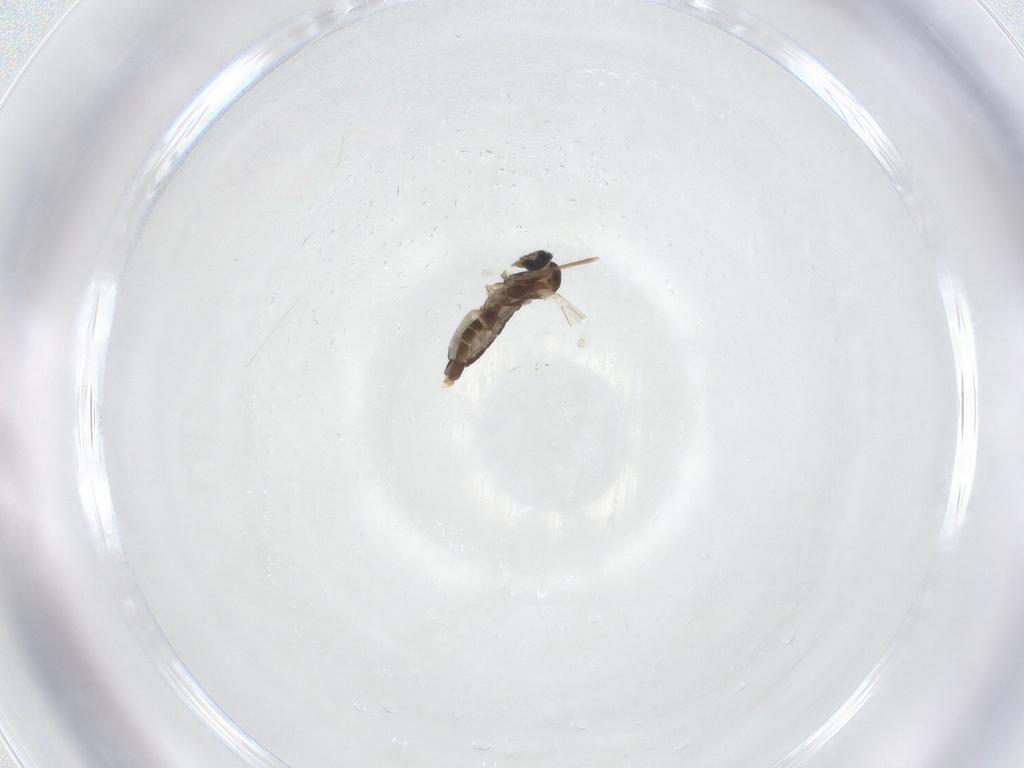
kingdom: Animalia
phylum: Arthropoda
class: Insecta
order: Diptera
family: Cecidomyiidae
